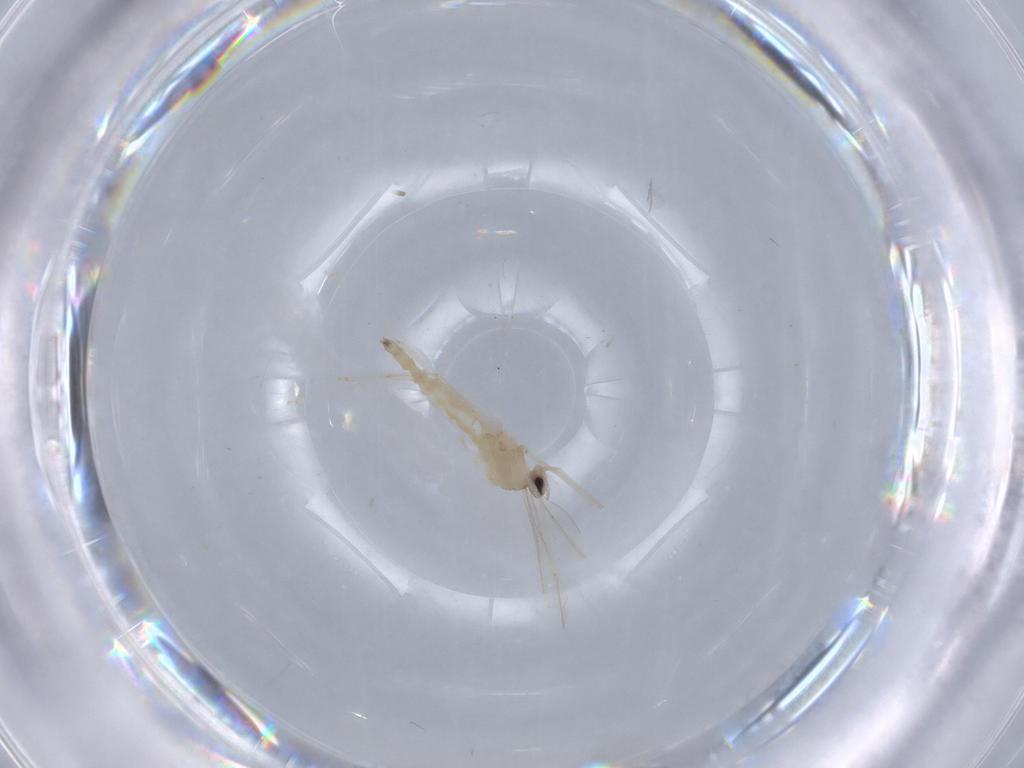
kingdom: Animalia
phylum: Arthropoda
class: Insecta
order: Diptera
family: Cecidomyiidae
